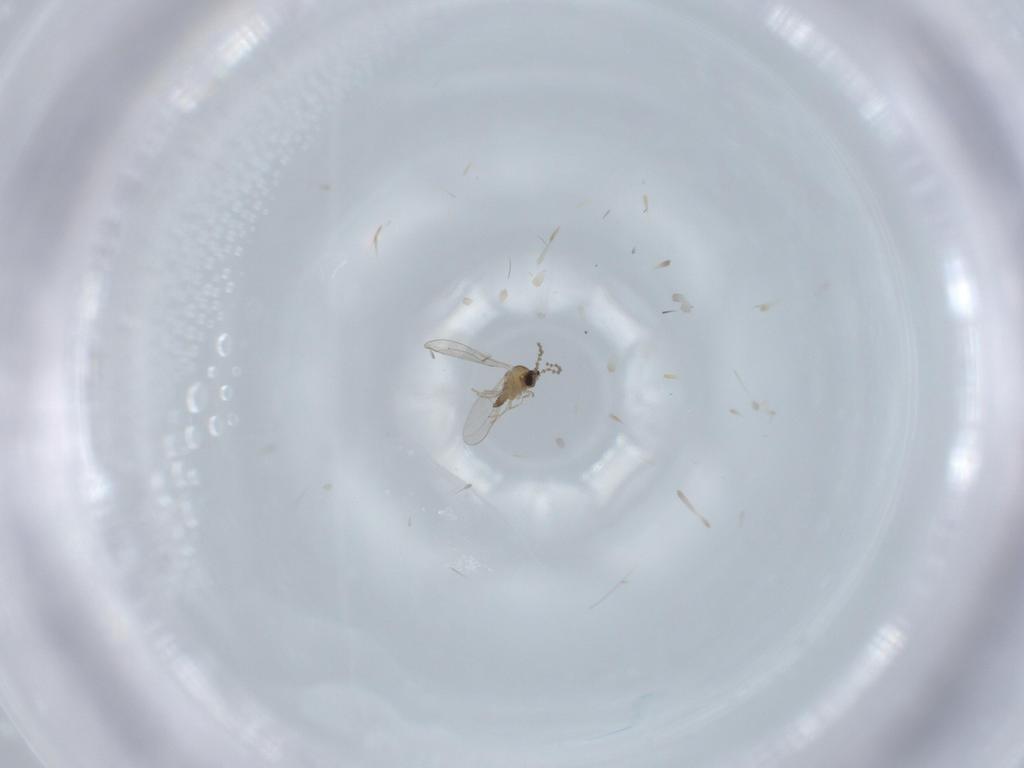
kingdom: Animalia
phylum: Arthropoda
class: Insecta
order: Diptera
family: Cecidomyiidae
